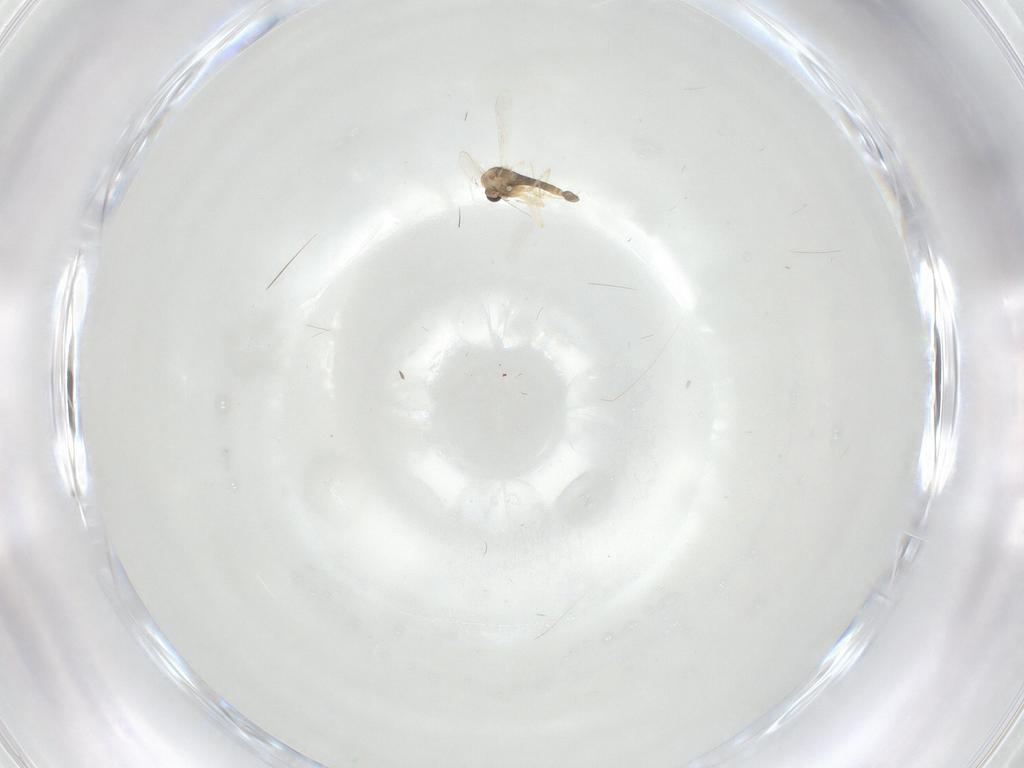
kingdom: Animalia
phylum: Arthropoda
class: Insecta
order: Diptera
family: Chironomidae
